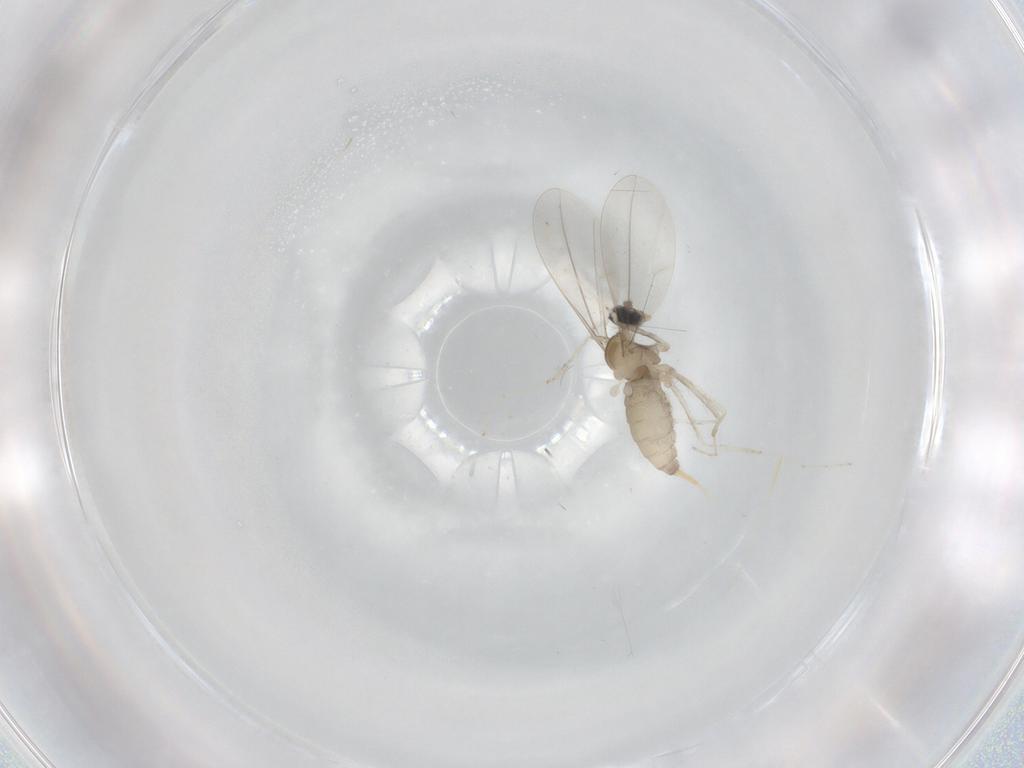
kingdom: Animalia
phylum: Arthropoda
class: Insecta
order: Diptera
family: Cecidomyiidae
